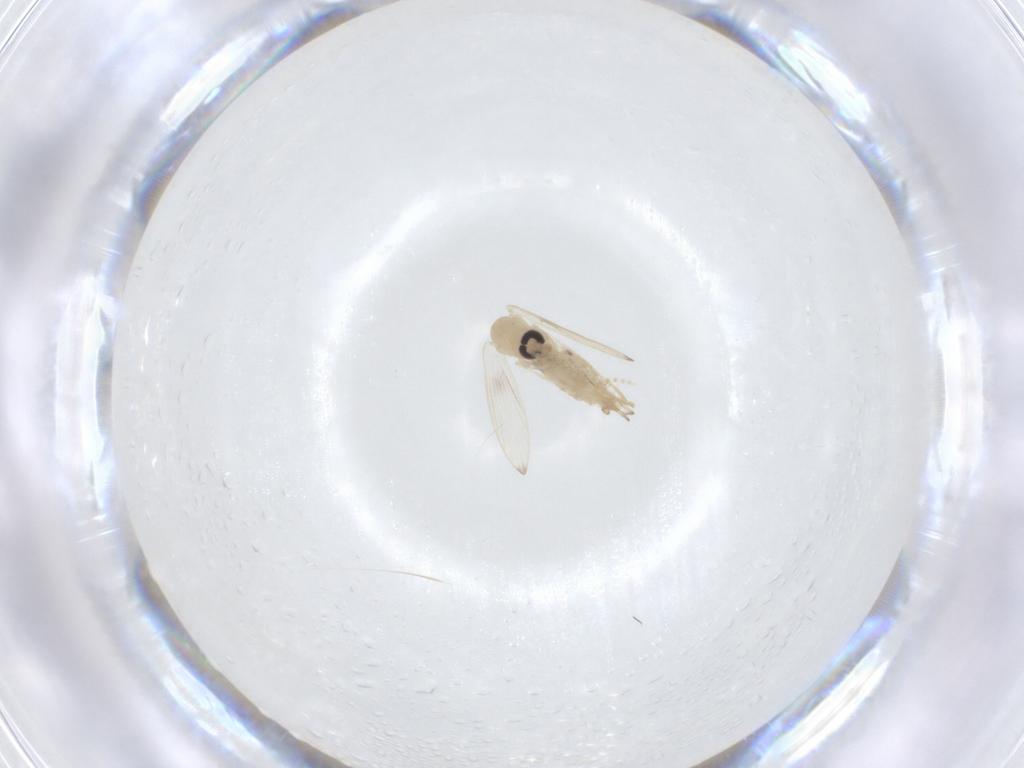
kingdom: Animalia
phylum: Arthropoda
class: Insecta
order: Diptera
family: Psychodidae
